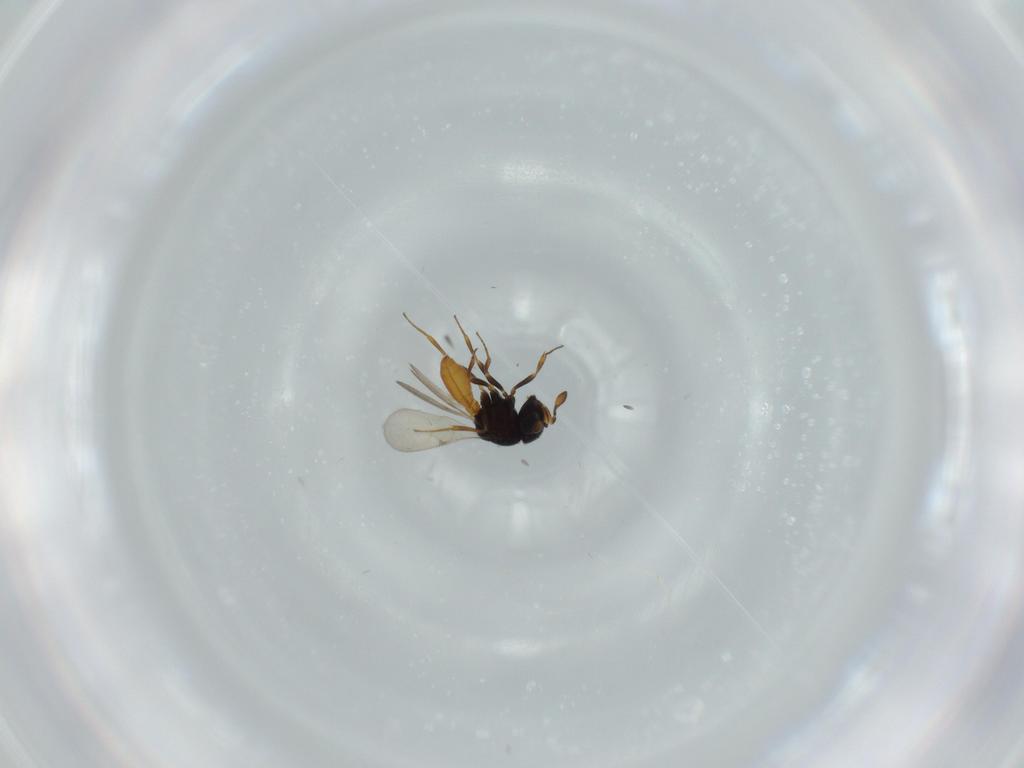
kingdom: Animalia
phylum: Arthropoda
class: Insecta
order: Hymenoptera
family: Scelionidae
